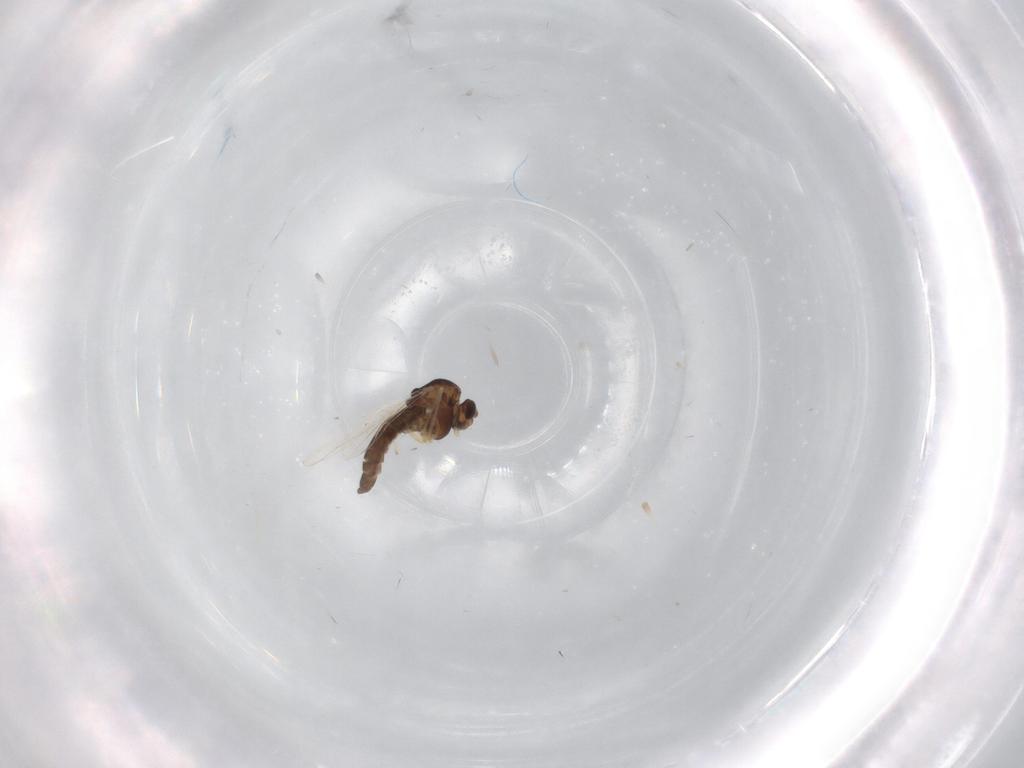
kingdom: Animalia
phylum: Arthropoda
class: Insecta
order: Diptera
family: Chironomidae
